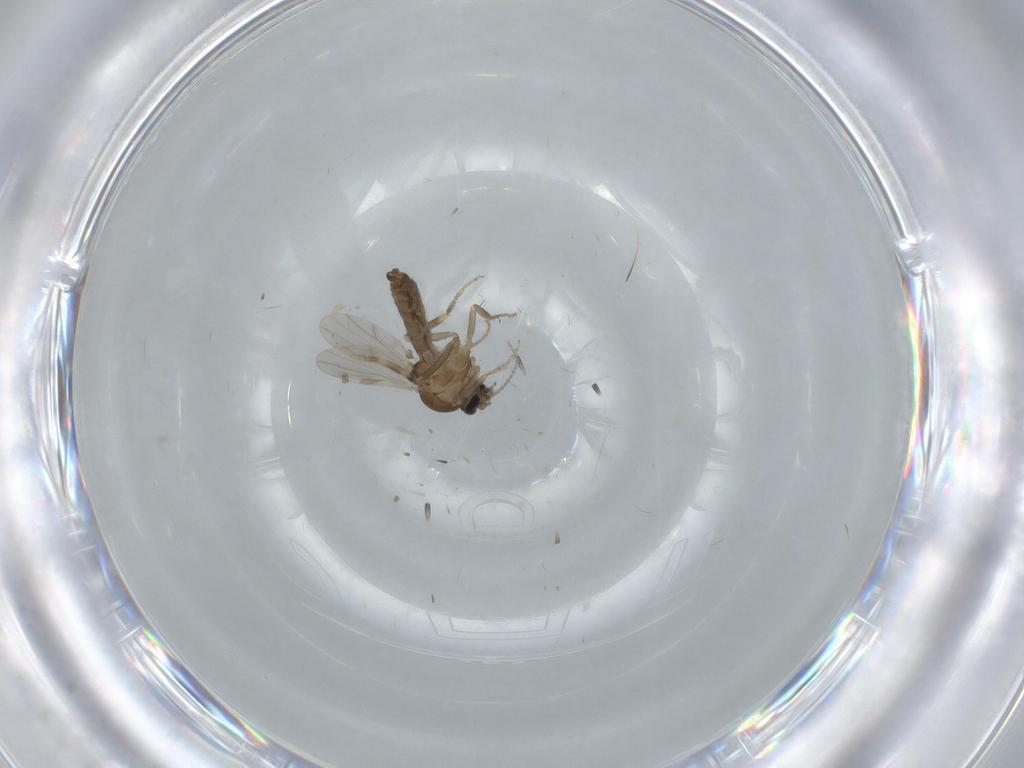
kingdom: Animalia
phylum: Arthropoda
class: Insecta
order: Diptera
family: Ceratopogonidae
